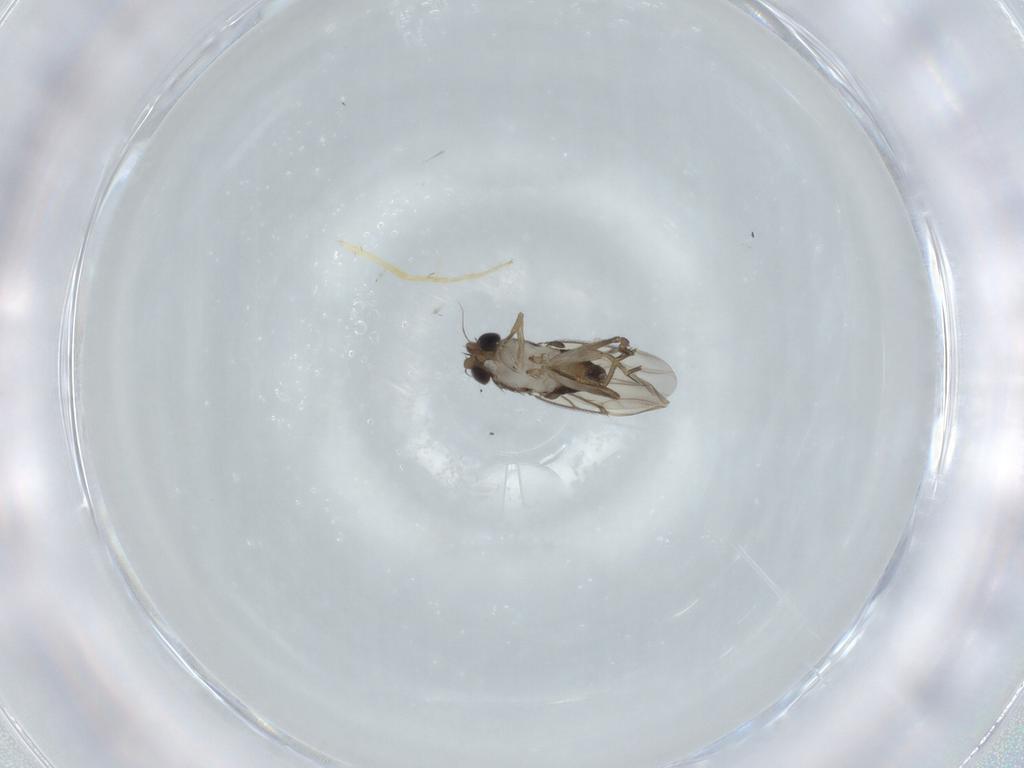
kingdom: Animalia
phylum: Arthropoda
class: Insecta
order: Diptera
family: Phoridae
